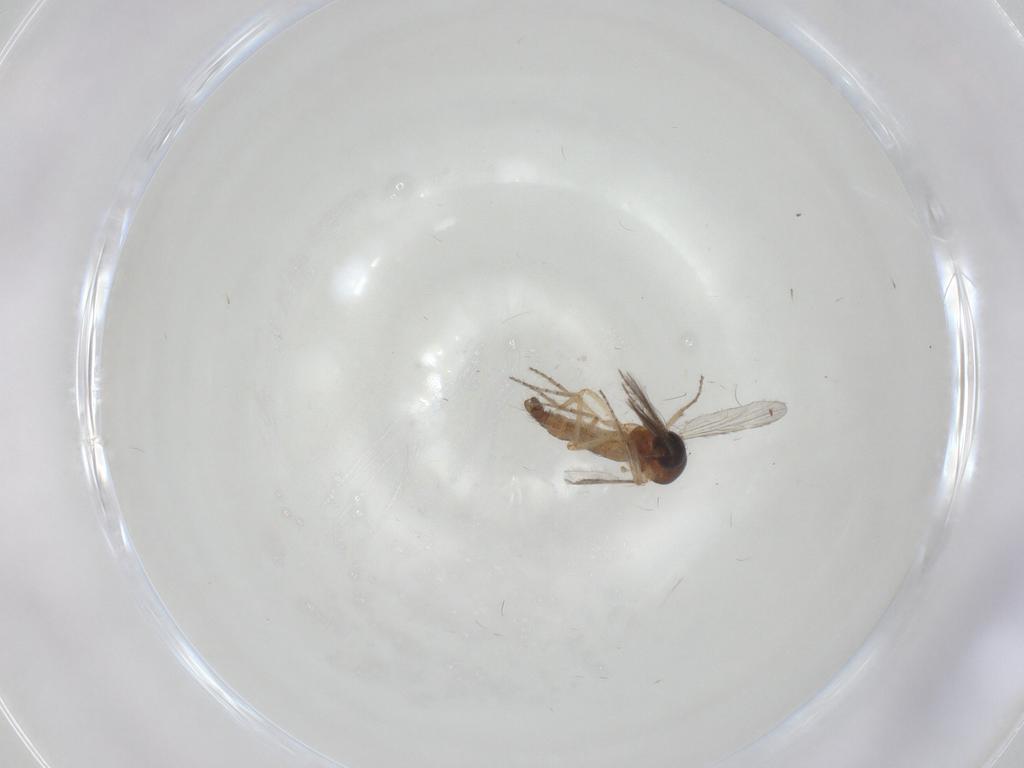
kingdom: Animalia
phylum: Arthropoda
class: Insecta
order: Diptera
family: Ceratopogonidae
